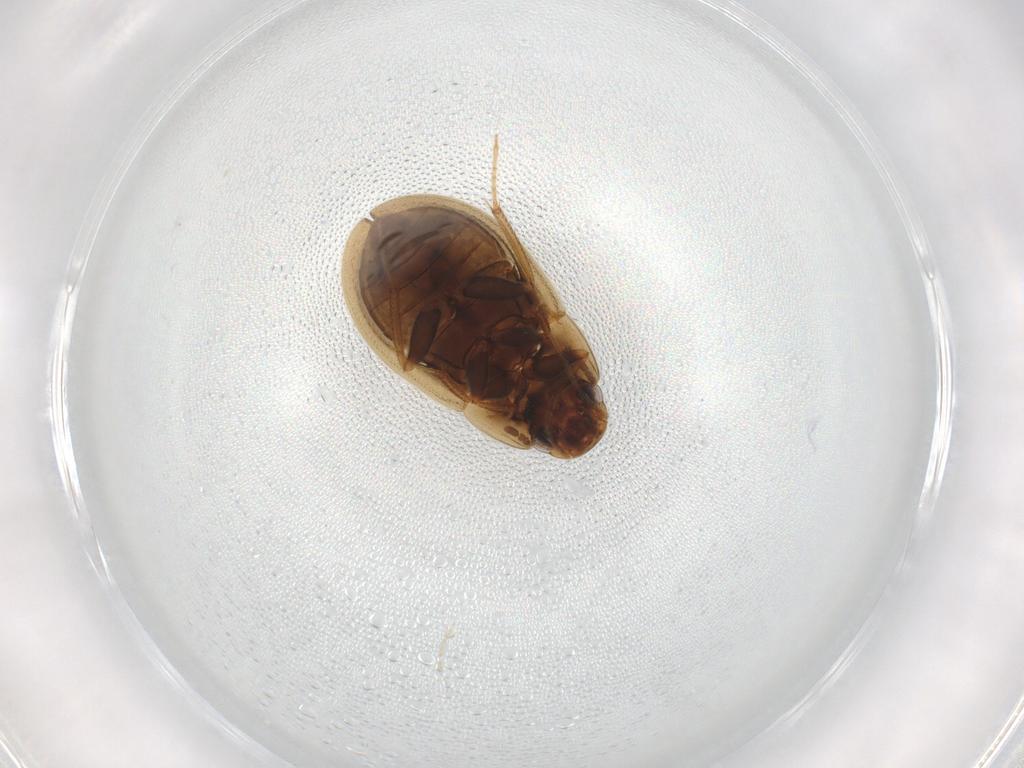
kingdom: Animalia
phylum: Arthropoda
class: Insecta
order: Coleoptera
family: Hydrophilidae
